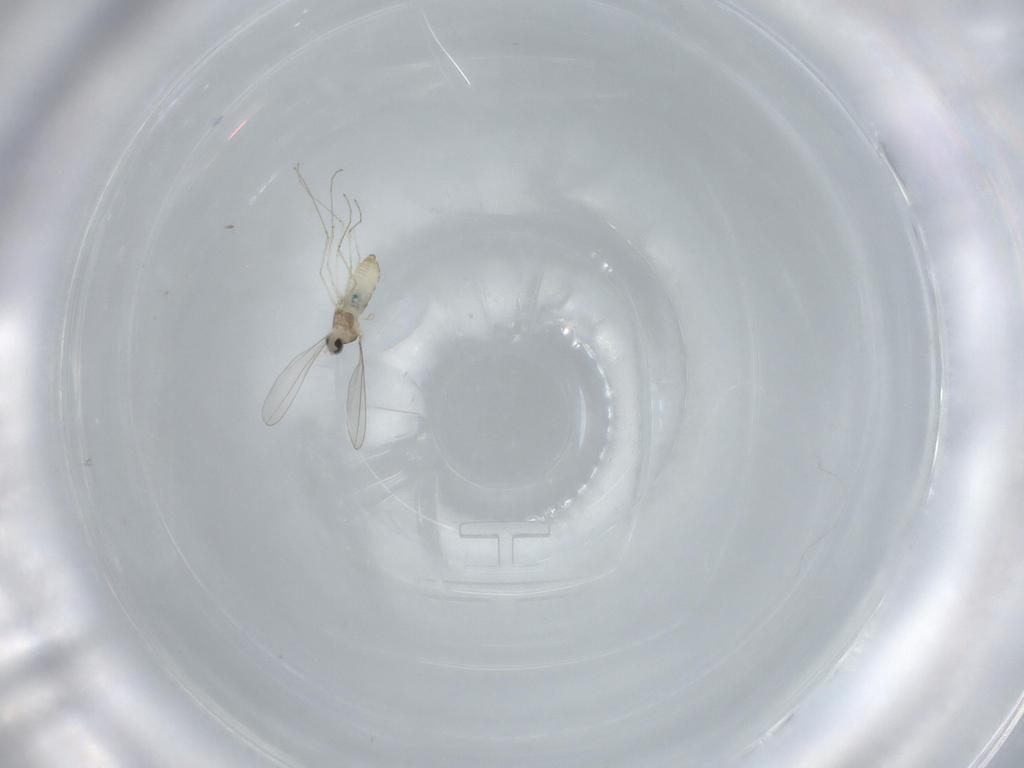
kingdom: Animalia
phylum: Arthropoda
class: Insecta
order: Diptera
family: Cecidomyiidae
